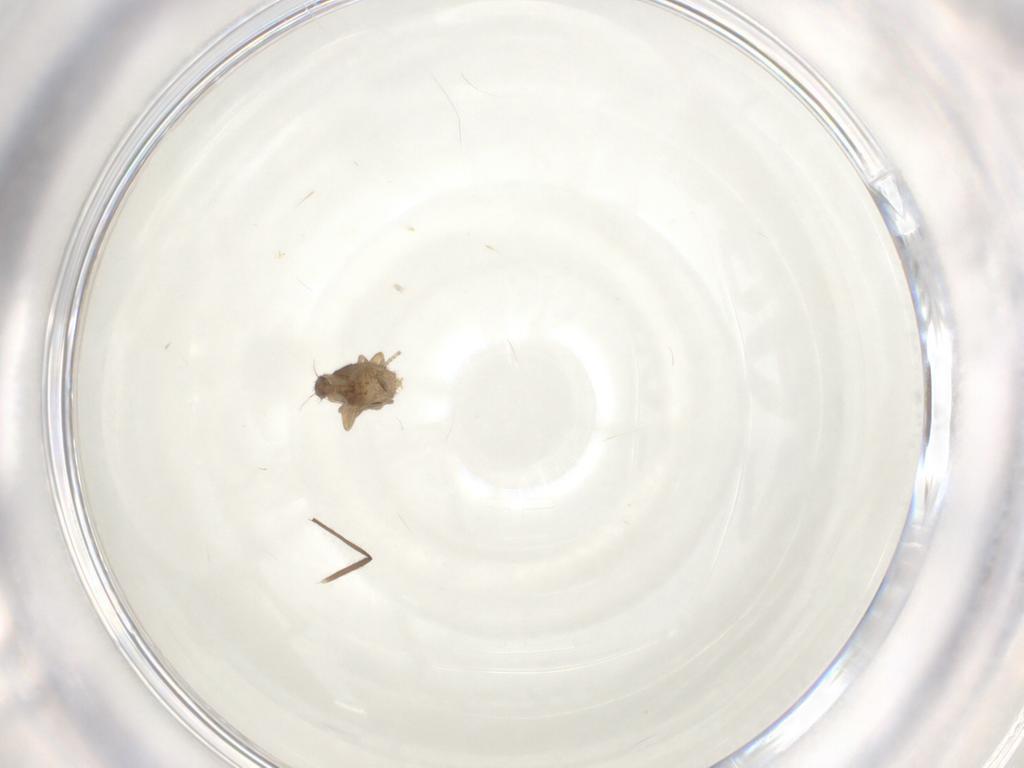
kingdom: Animalia
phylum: Arthropoda
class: Insecta
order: Diptera
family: Chironomidae
